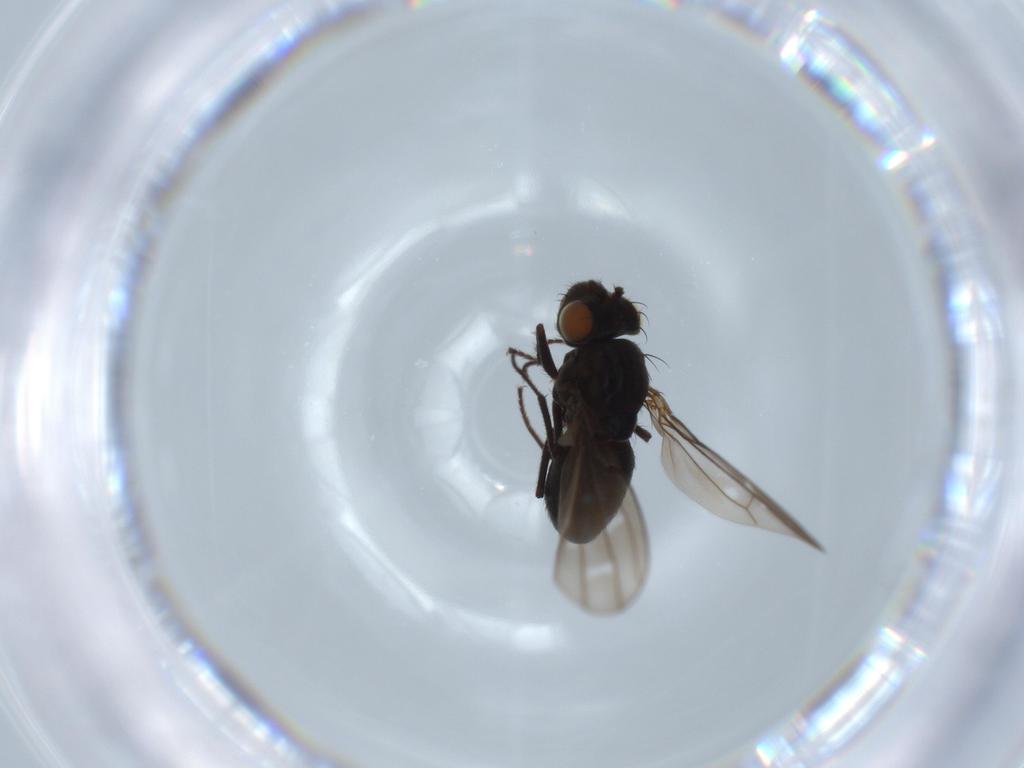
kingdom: Animalia
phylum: Arthropoda
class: Insecta
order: Diptera
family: Ephydridae
